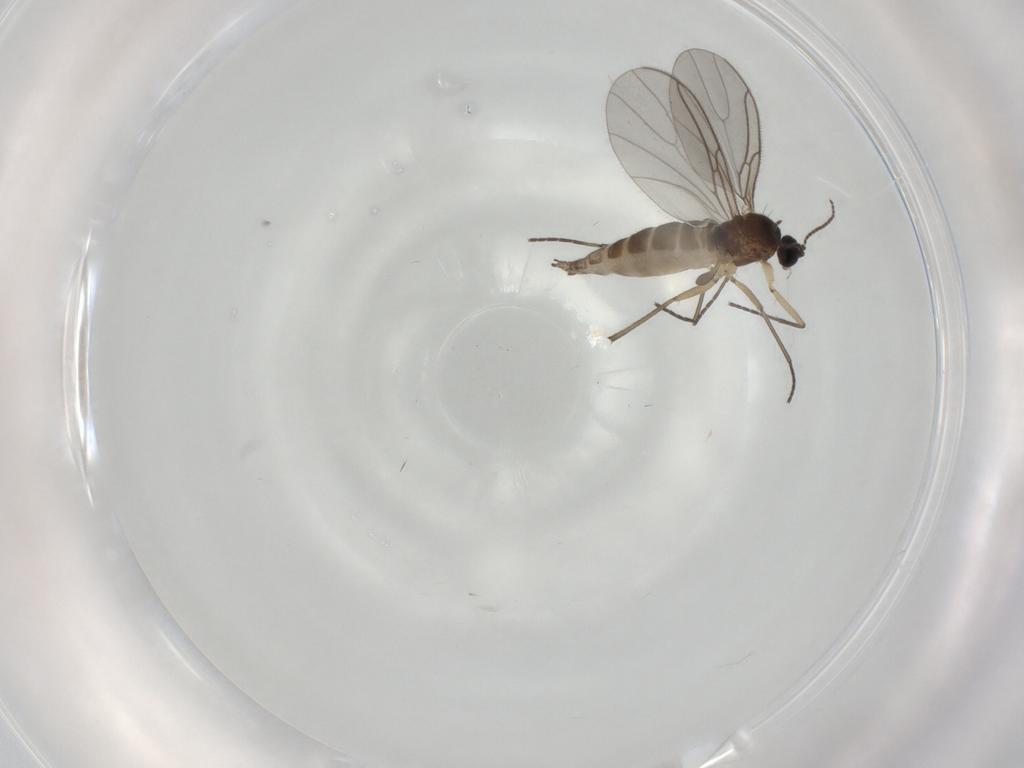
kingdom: Animalia
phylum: Arthropoda
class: Insecta
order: Diptera
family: Sciaridae
